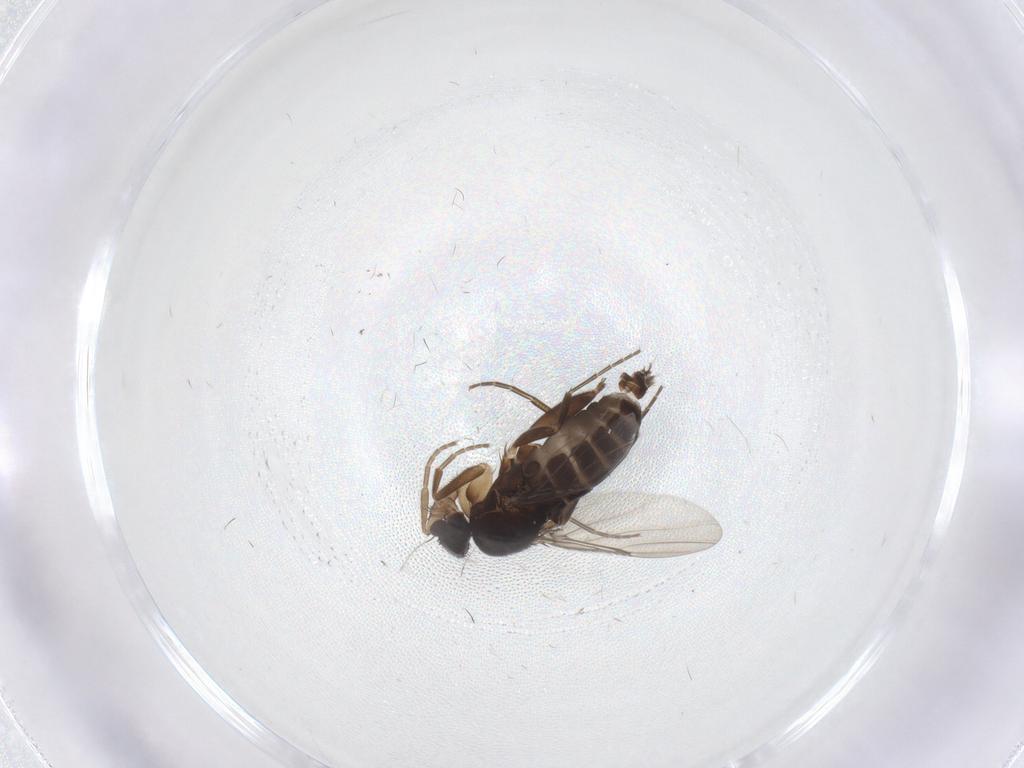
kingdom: Animalia
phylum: Arthropoda
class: Insecta
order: Diptera
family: Phoridae
